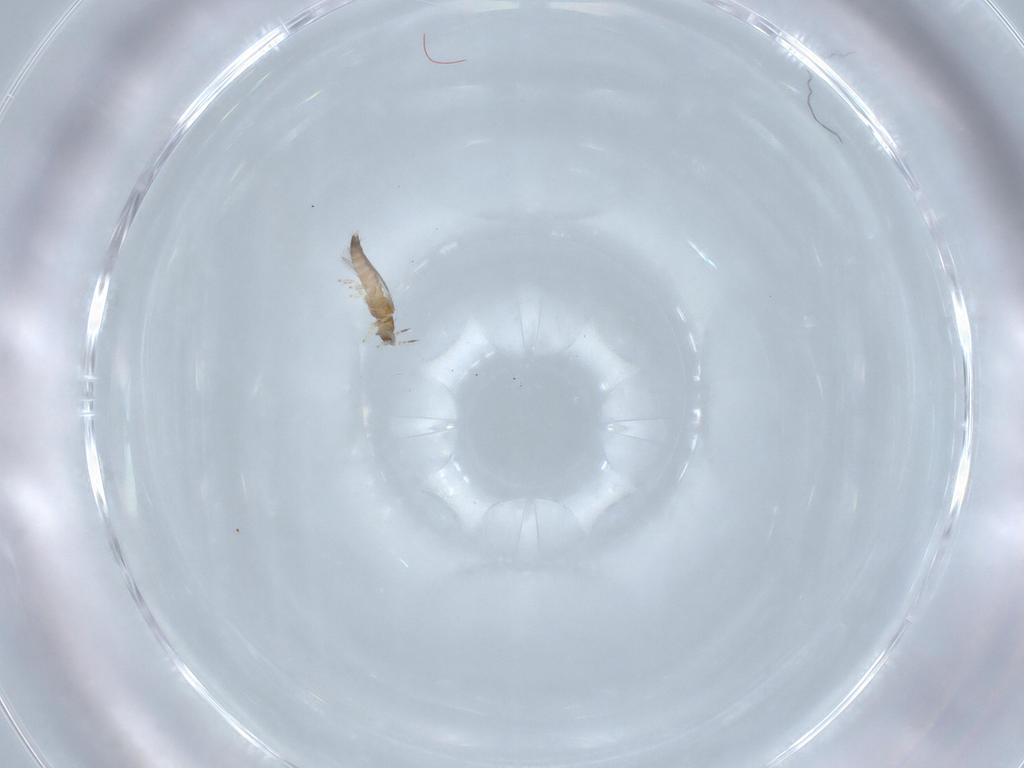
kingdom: Animalia
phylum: Arthropoda
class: Insecta
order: Thysanoptera
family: Thripidae
